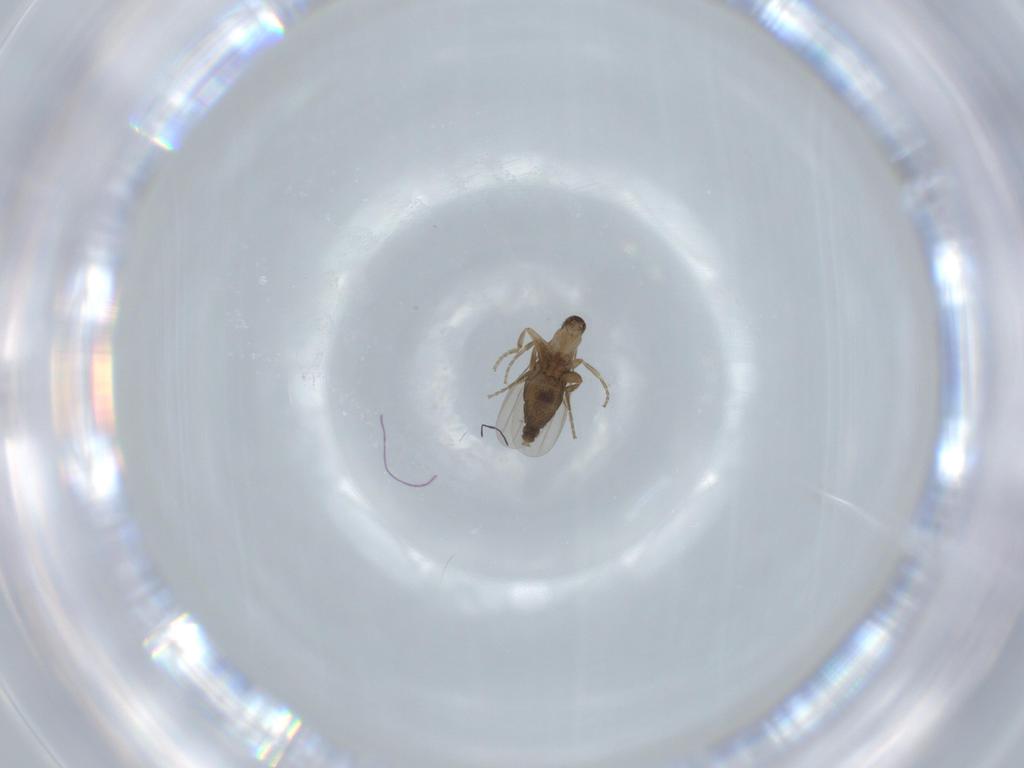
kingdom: Animalia
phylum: Arthropoda
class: Insecta
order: Diptera
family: Phoridae
